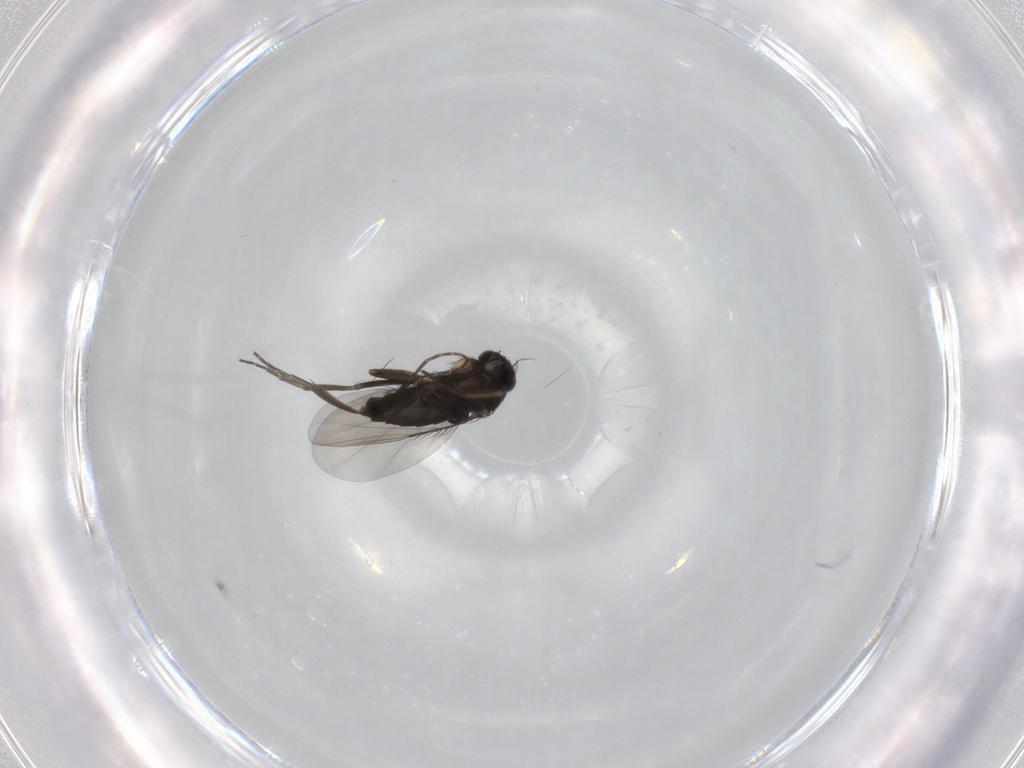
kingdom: Animalia
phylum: Arthropoda
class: Insecta
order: Diptera
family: Phoridae
